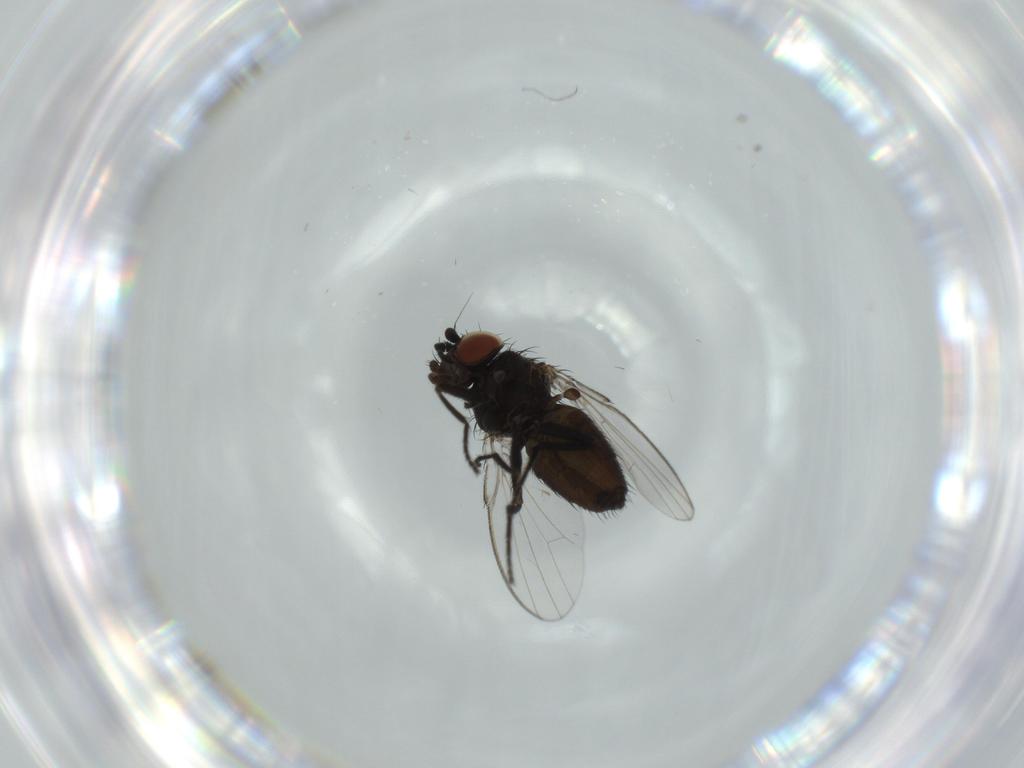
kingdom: Animalia
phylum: Arthropoda
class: Insecta
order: Diptera
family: Milichiidae
